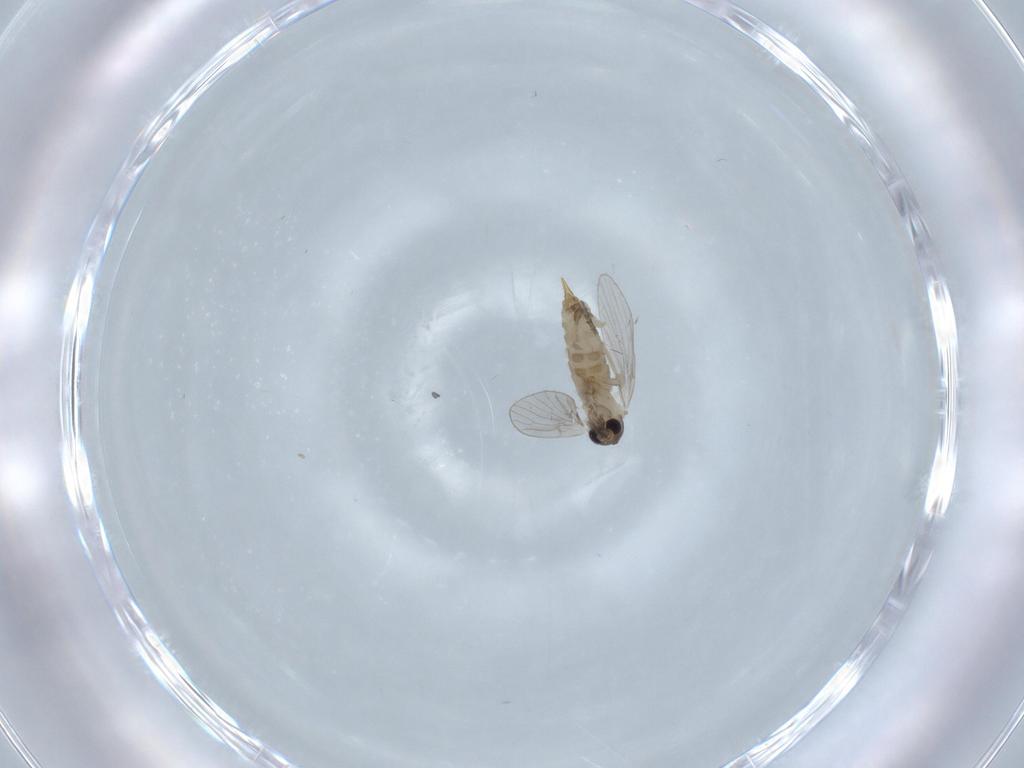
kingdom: Animalia
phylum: Arthropoda
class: Insecta
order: Diptera
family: Psychodidae
